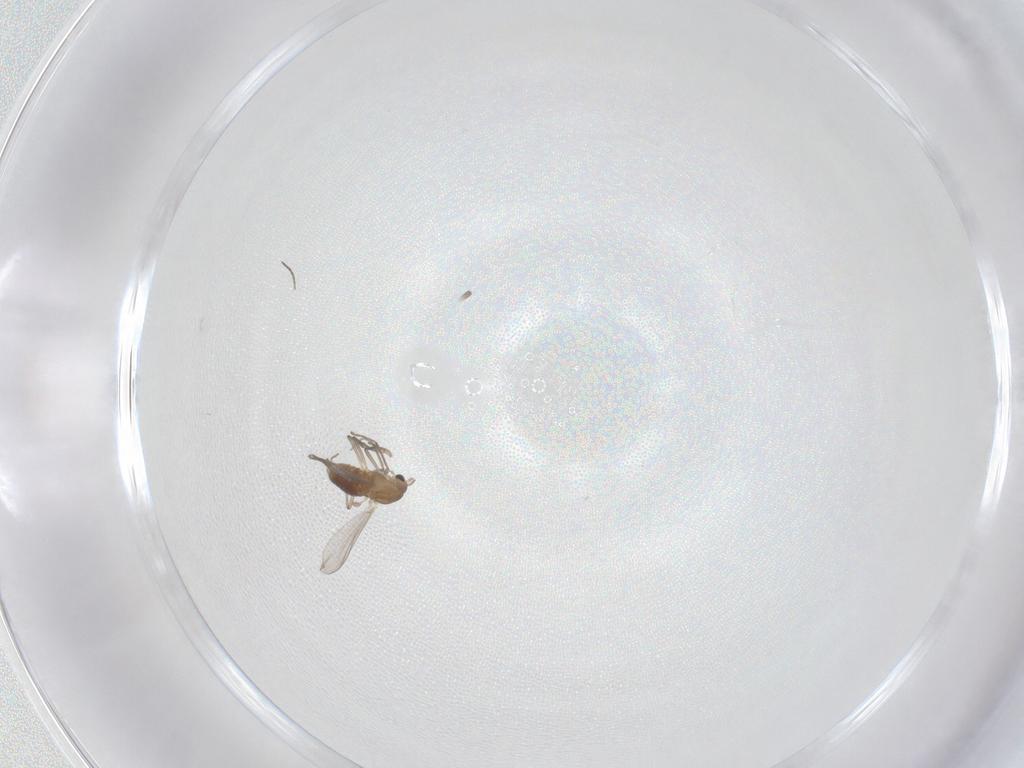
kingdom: Animalia
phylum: Arthropoda
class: Insecta
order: Diptera
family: Chironomidae
